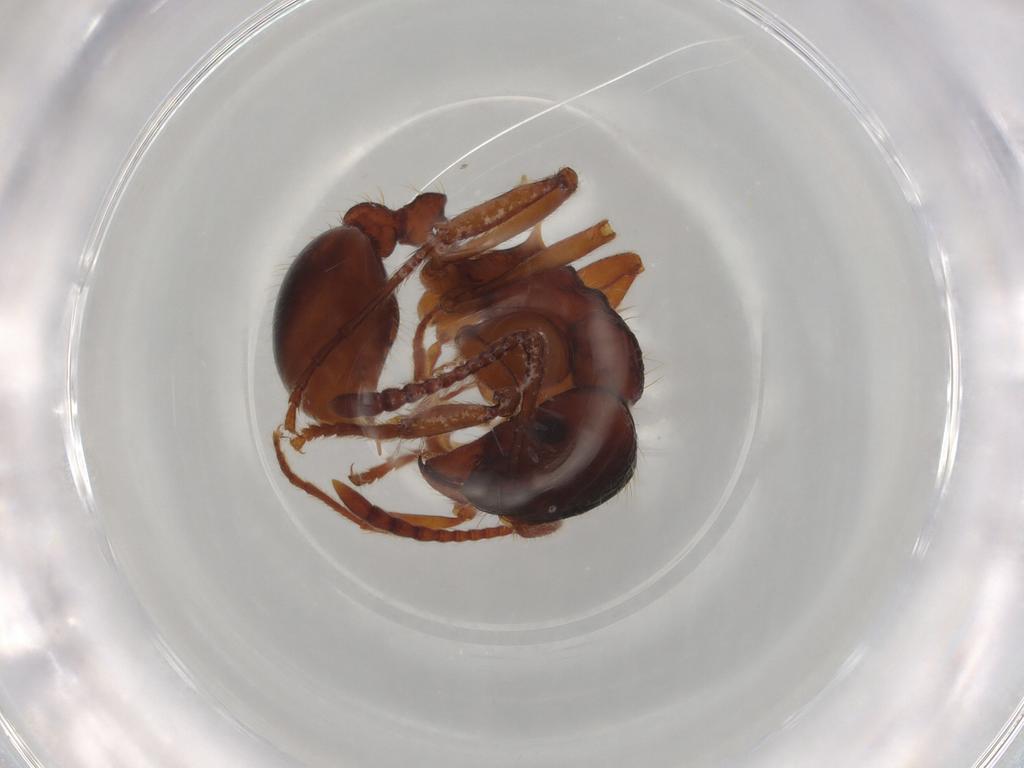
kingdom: Animalia
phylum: Arthropoda
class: Insecta
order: Hymenoptera
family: Formicidae
